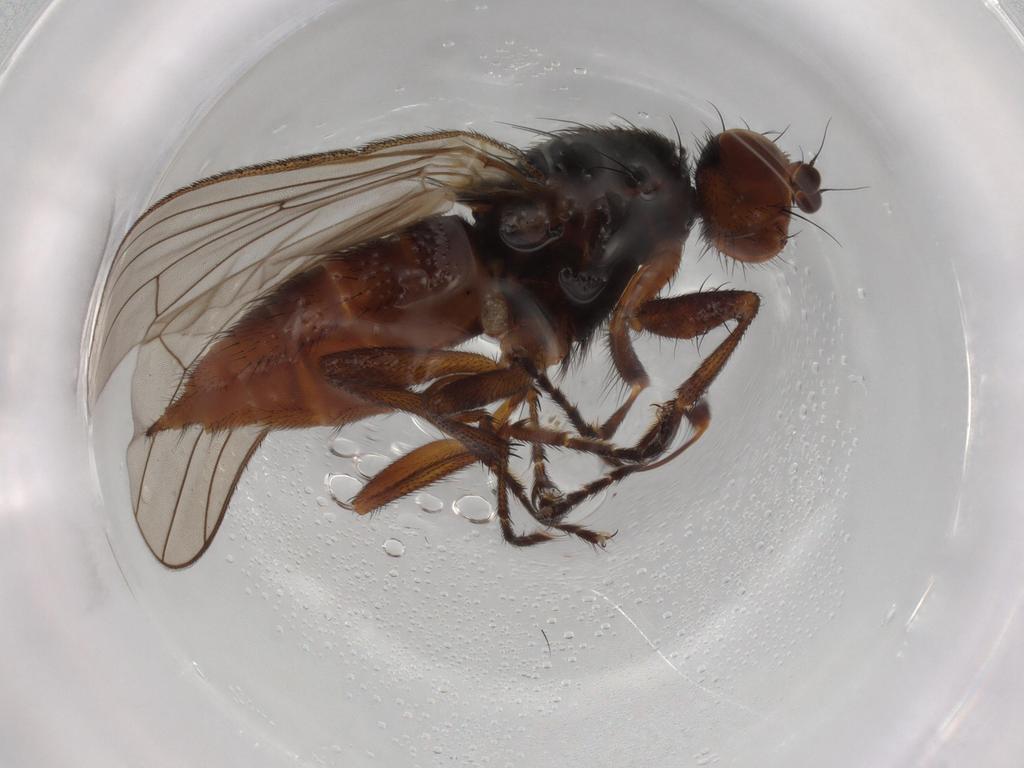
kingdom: Animalia
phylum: Arthropoda
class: Insecta
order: Diptera
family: Heleomyzidae
